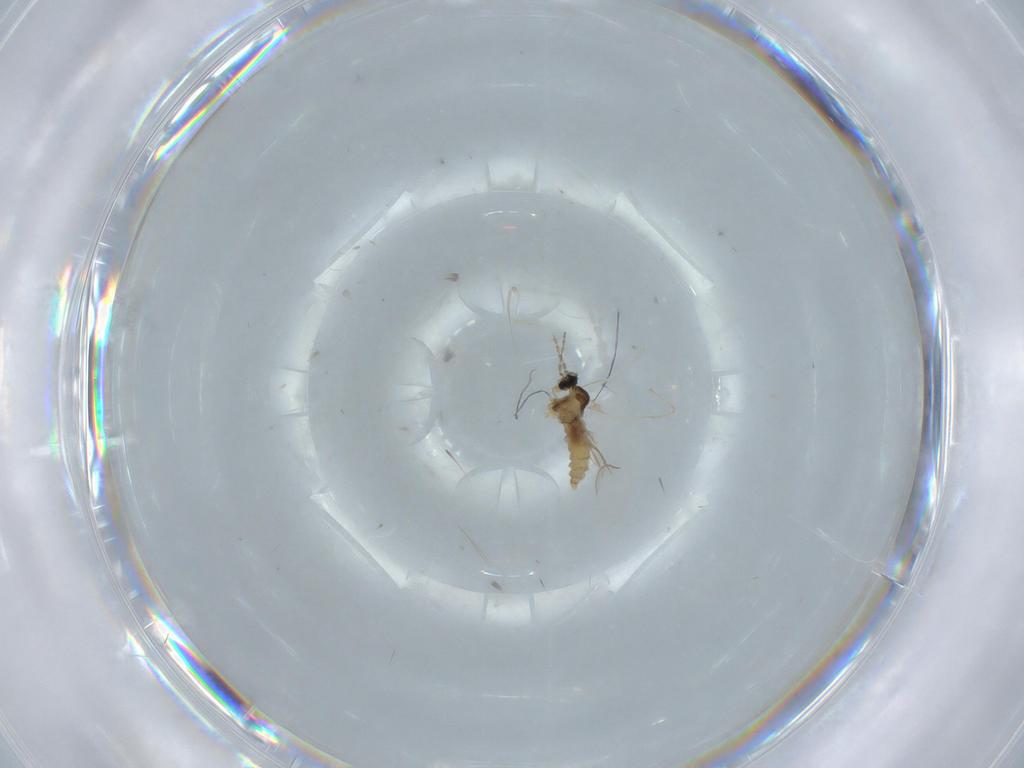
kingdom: Animalia
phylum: Arthropoda
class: Insecta
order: Diptera
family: Cecidomyiidae
